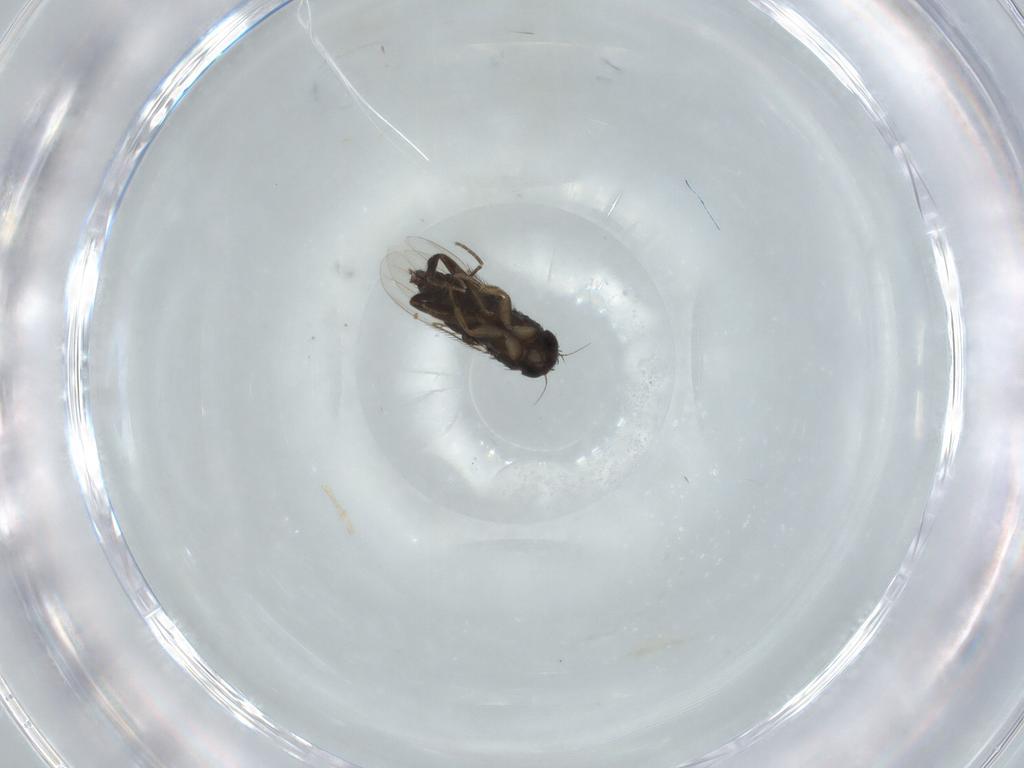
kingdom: Animalia
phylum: Arthropoda
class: Insecta
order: Diptera
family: Phoridae
